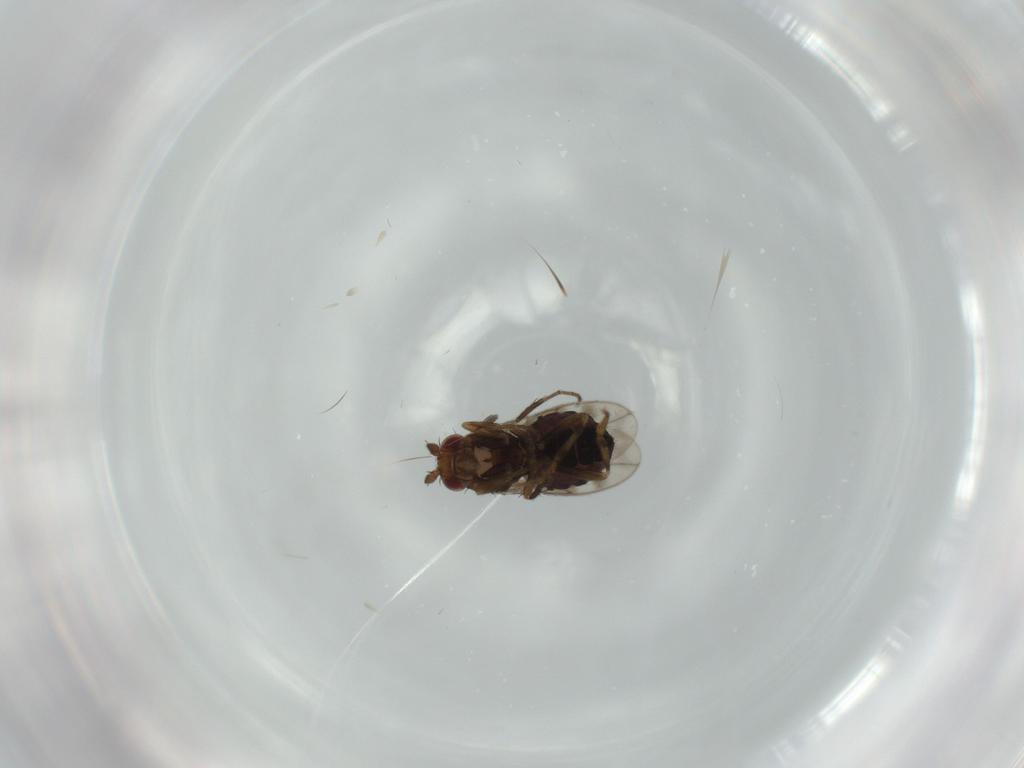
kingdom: Animalia
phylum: Arthropoda
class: Insecta
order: Diptera
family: Sphaeroceridae
